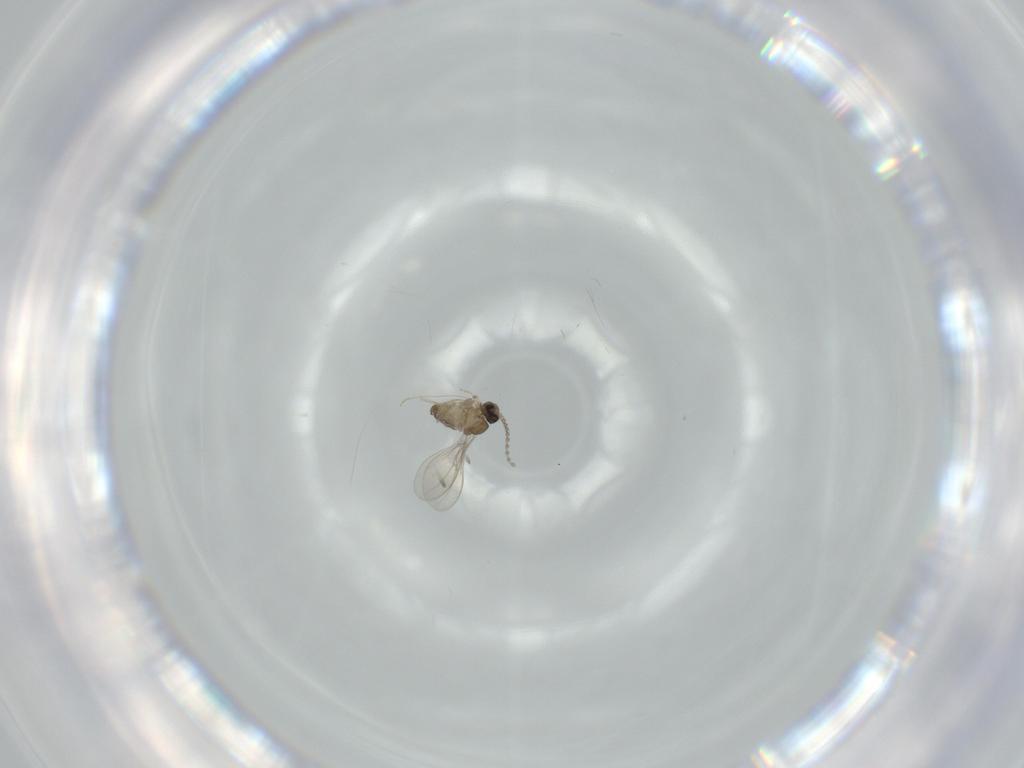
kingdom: Animalia
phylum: Arthropoda
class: Insecta
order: Diptera
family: Cecidomyiidae
